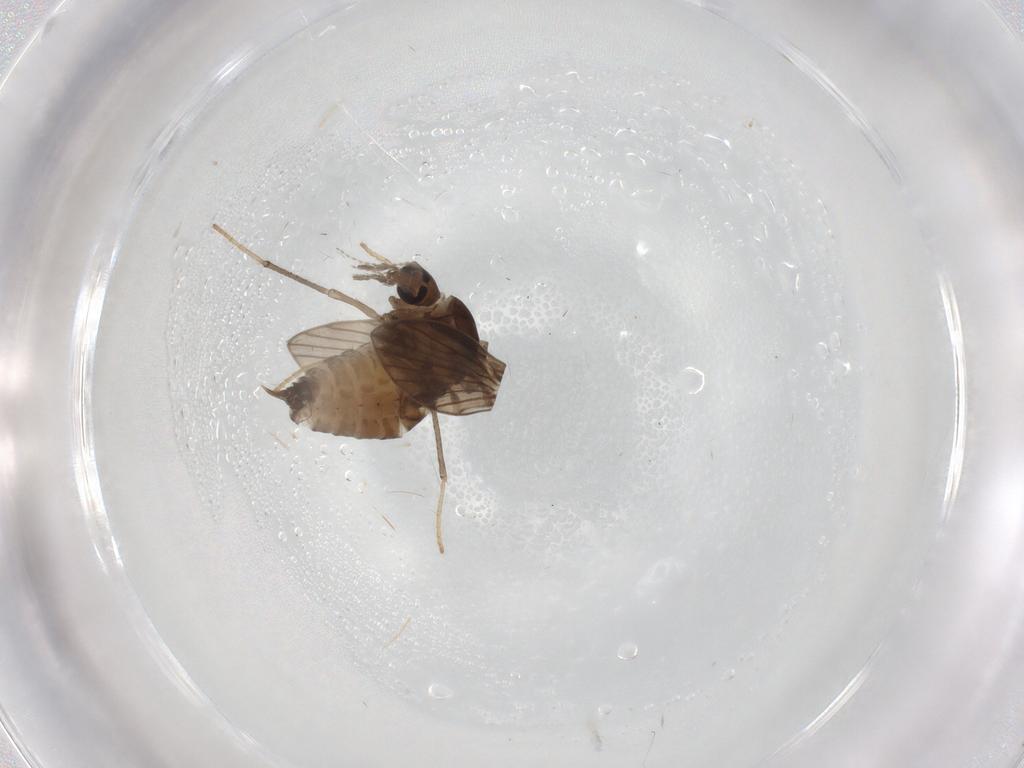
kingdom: Animalia
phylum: Arthropoda
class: Insecta
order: Diptera
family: Psychodidae
